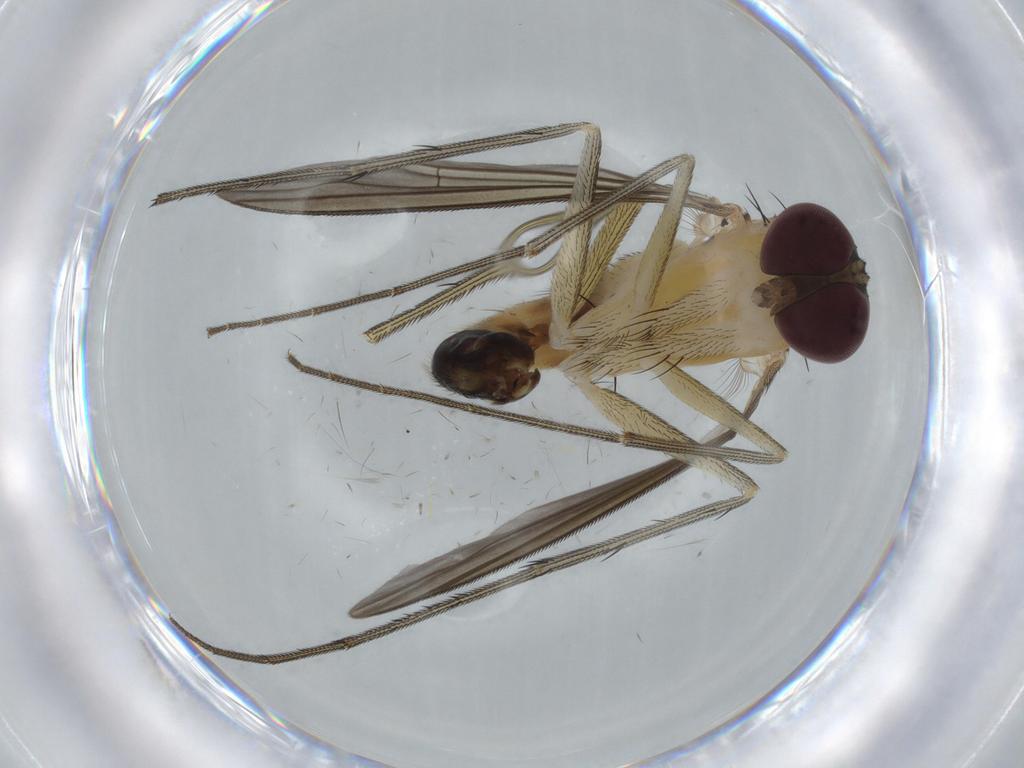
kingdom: Animalia
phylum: Arthropoda
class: Insecta
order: Diptera
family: Cecidomyiidae
